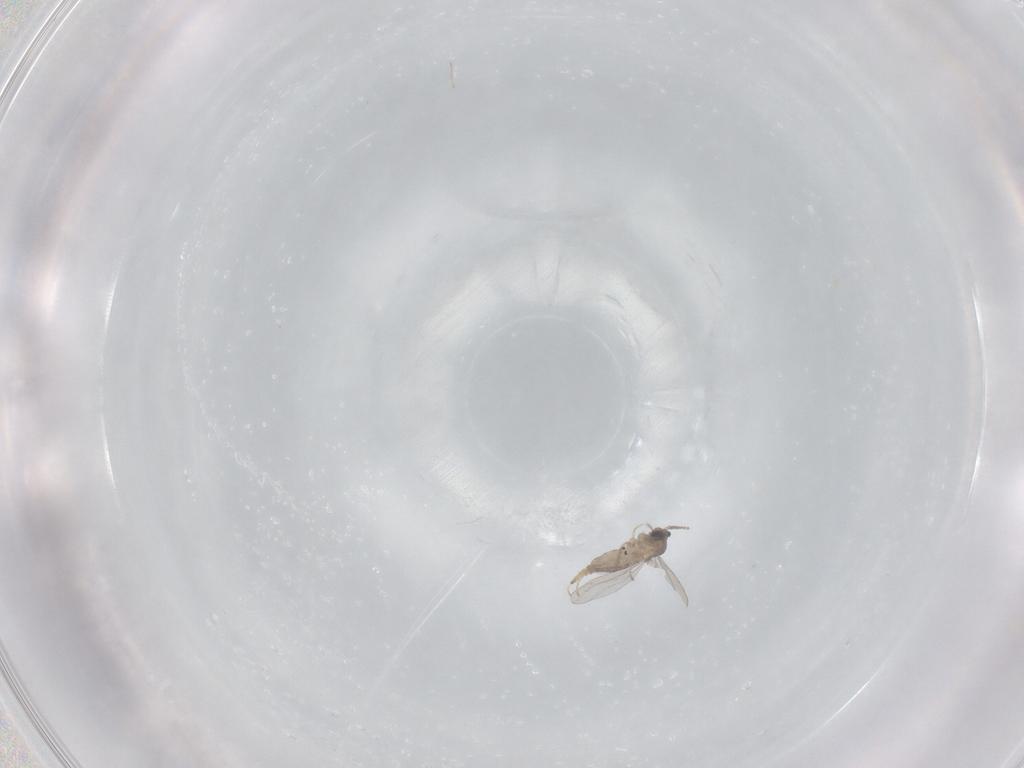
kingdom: Animalia
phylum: Arthropoda
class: Insecta
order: Diptera
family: Cecidomyiidae
